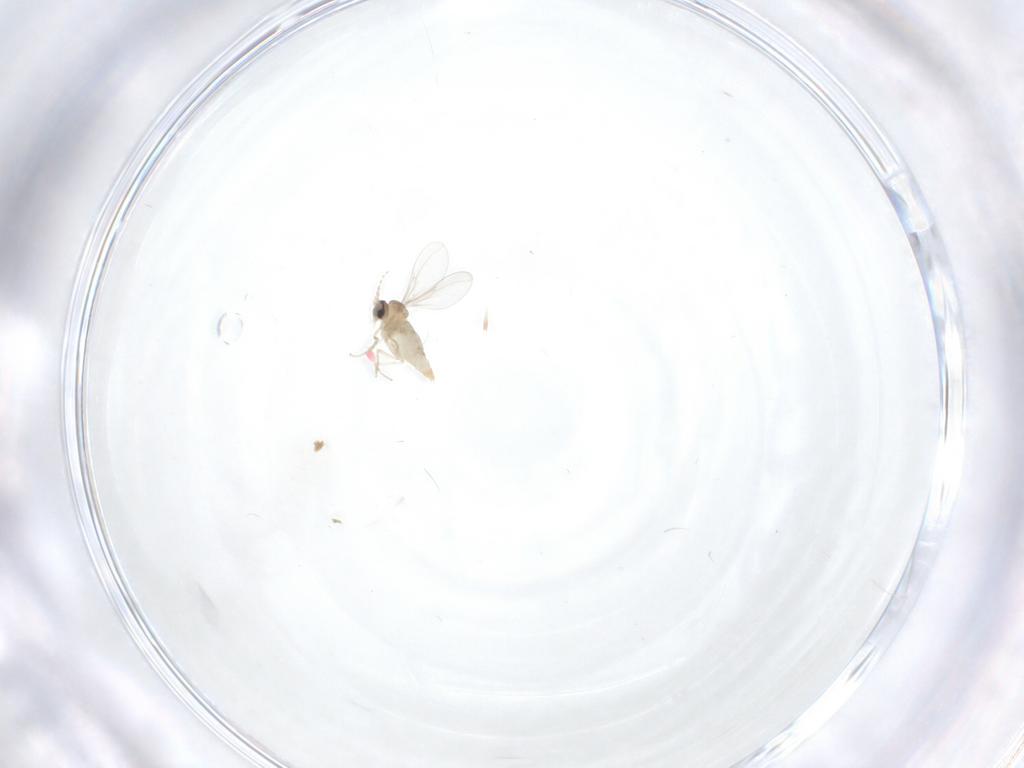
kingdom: Animalia
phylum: Arthropoda
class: Insecta
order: Diptera
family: Cecidomyiidae
